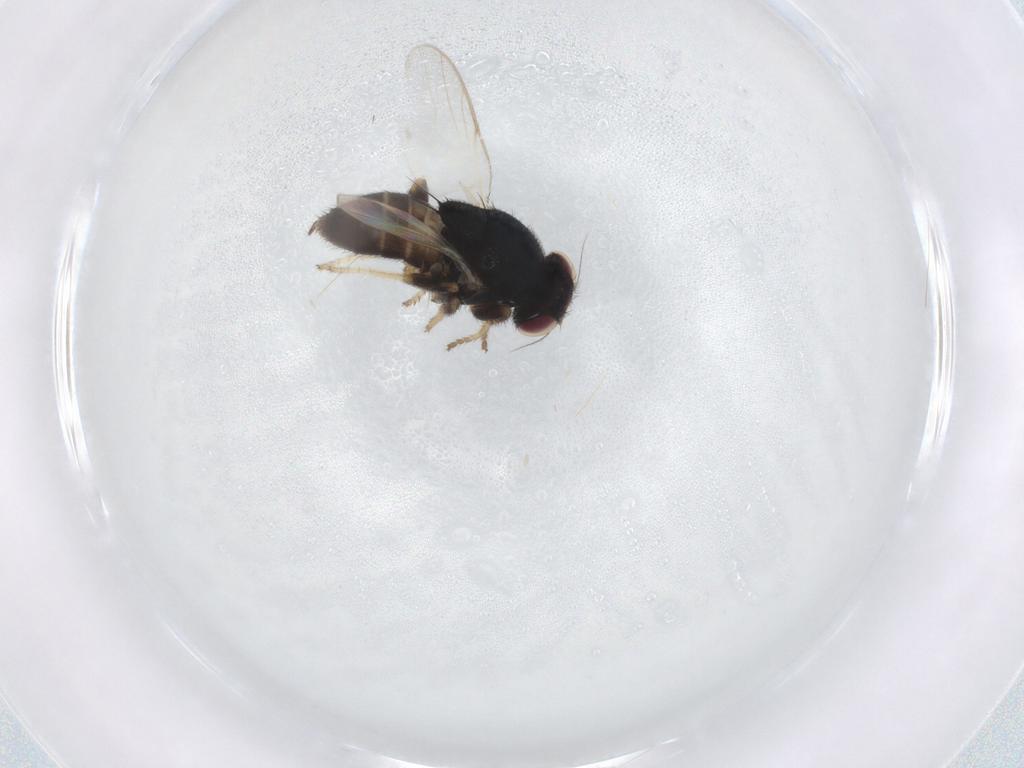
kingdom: Animalia
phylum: Arthropoda
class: Insecta
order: Diptera
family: Chloropidae
